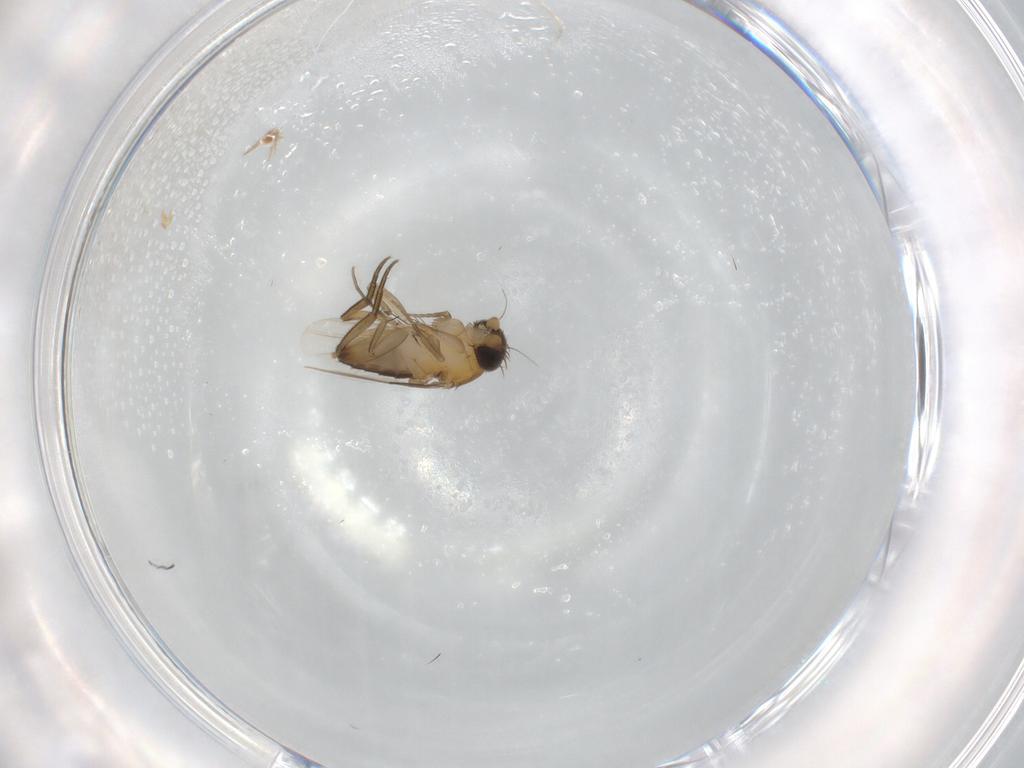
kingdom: Animalia
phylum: Arthropoda
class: Insecta
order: Diptera
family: Phoridae
